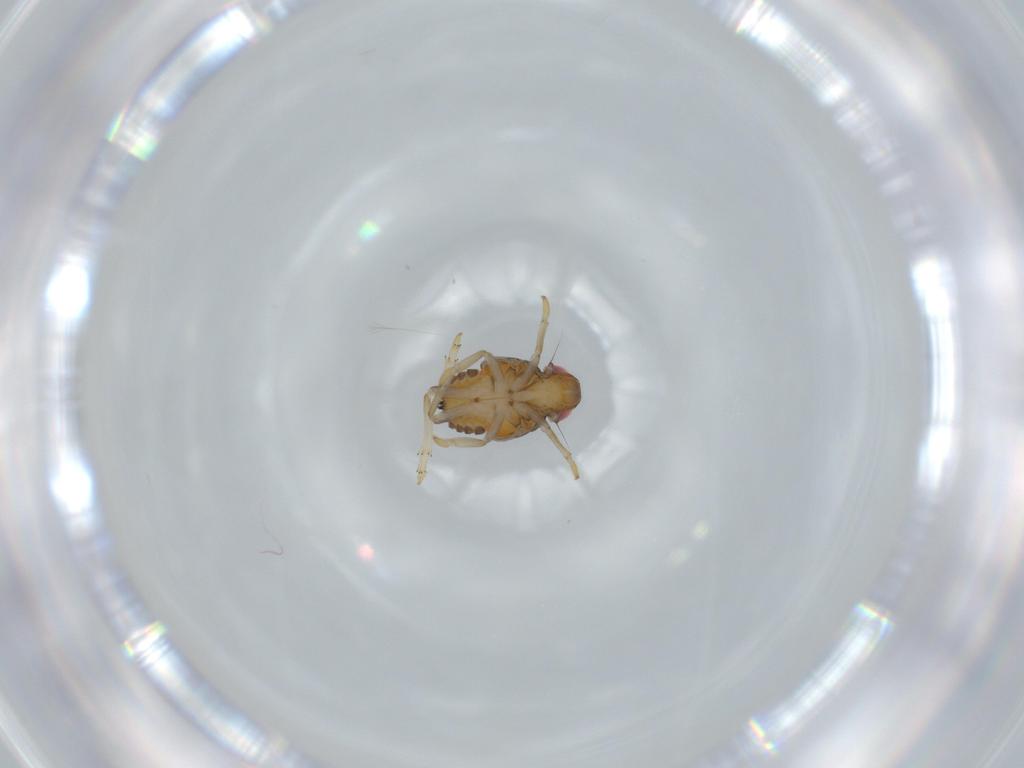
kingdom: Animalia
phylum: Arthropoda
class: Insecta
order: Hemiptera
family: Issidae
